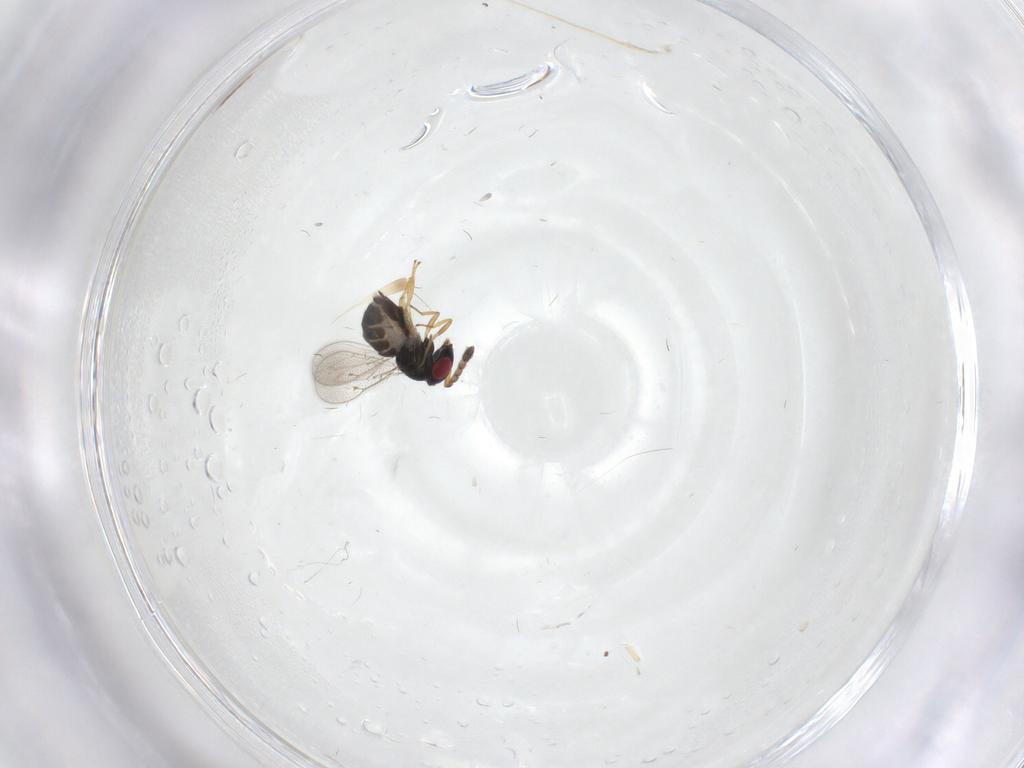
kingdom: Animalia
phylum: Arthropoda
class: Insecta
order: Hymenoptera
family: Eulophidae
